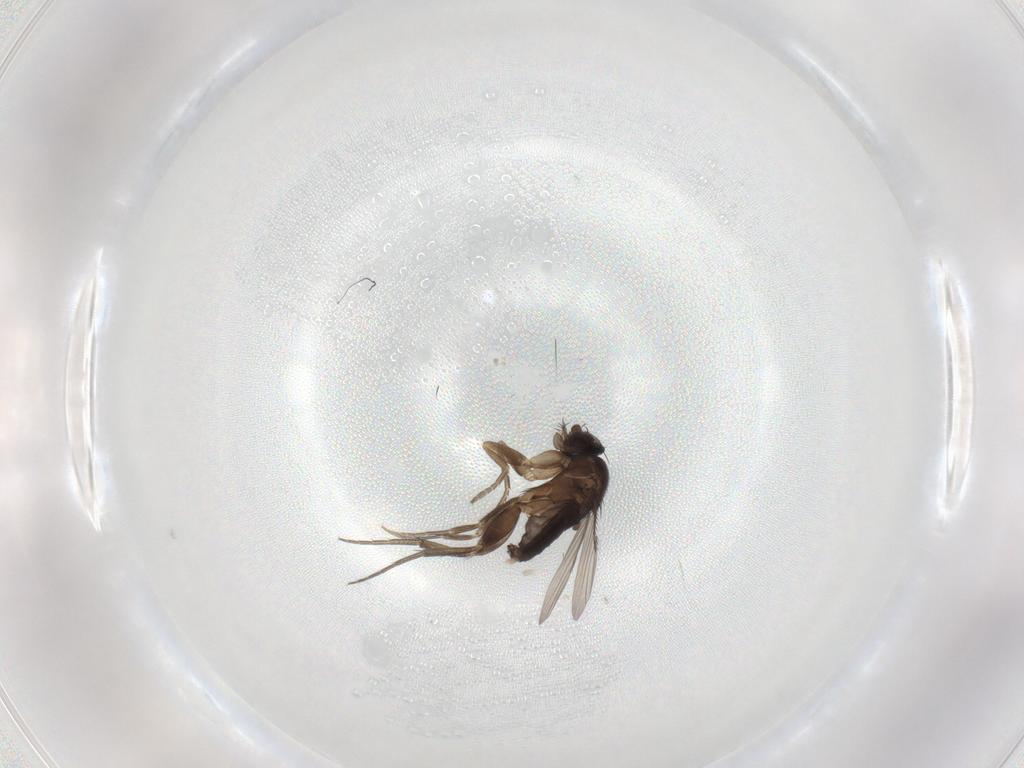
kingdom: Animalia
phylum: Arthropoda
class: Insecta
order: Diptera
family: Phoridae
